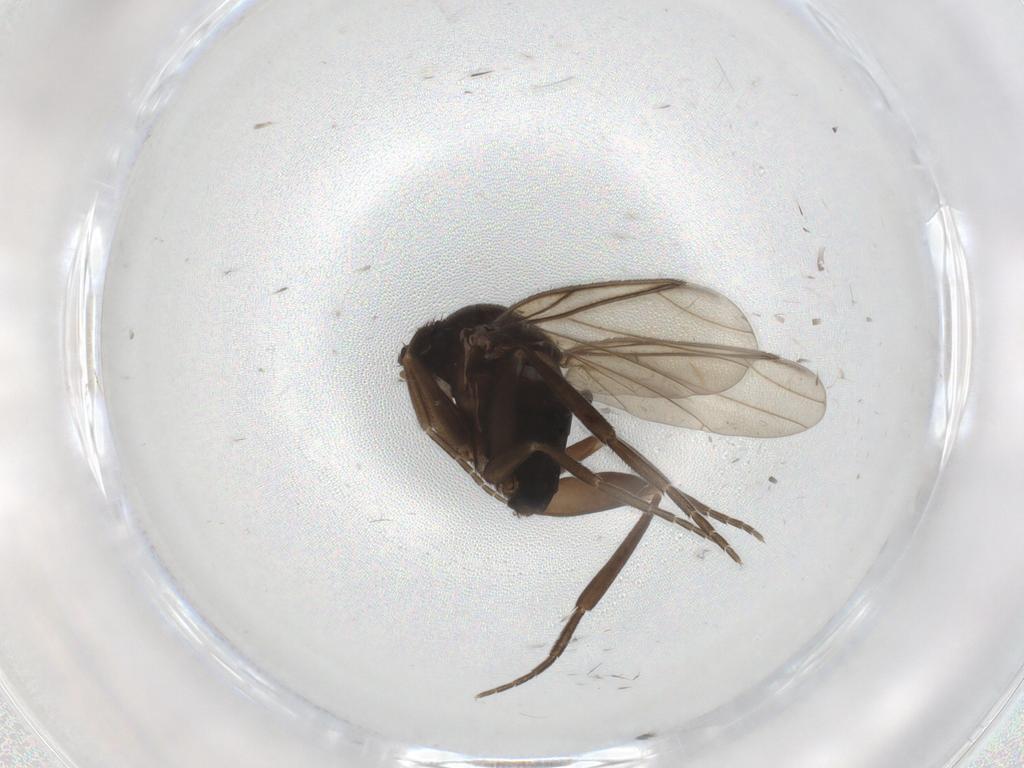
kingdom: Animalia
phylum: Arthropoda
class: Insecta
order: Diptera
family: Phoridae
